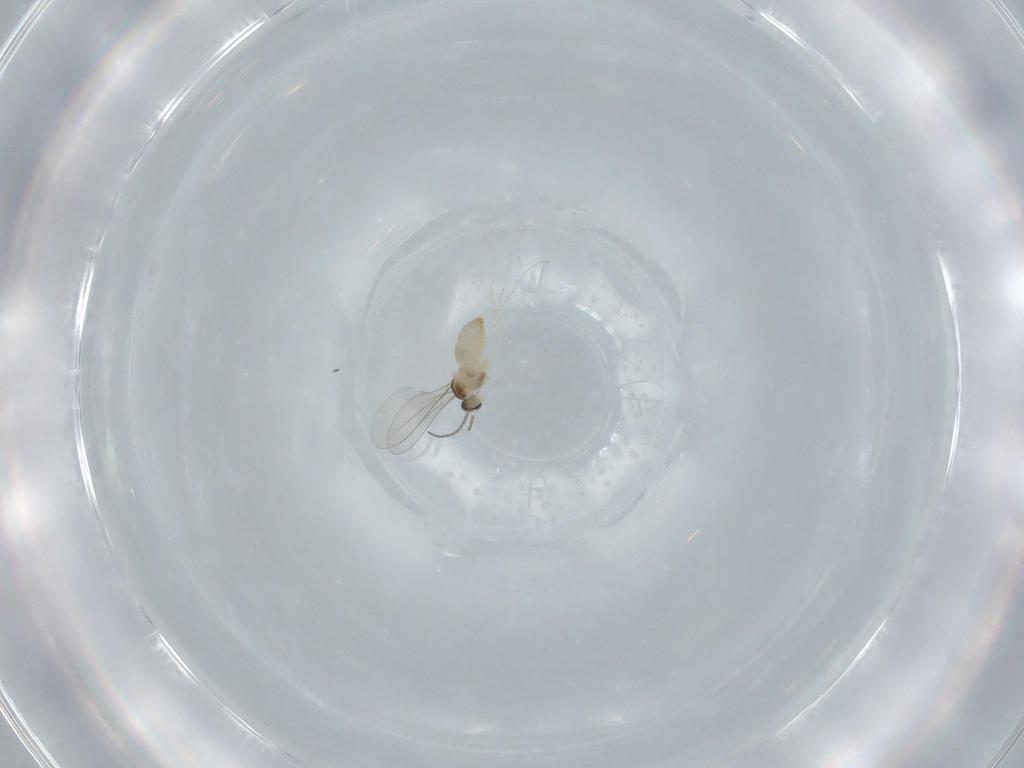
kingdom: Animalia
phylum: Arthropoda
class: Insecta
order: Diptera
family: Cecidomyiidae
